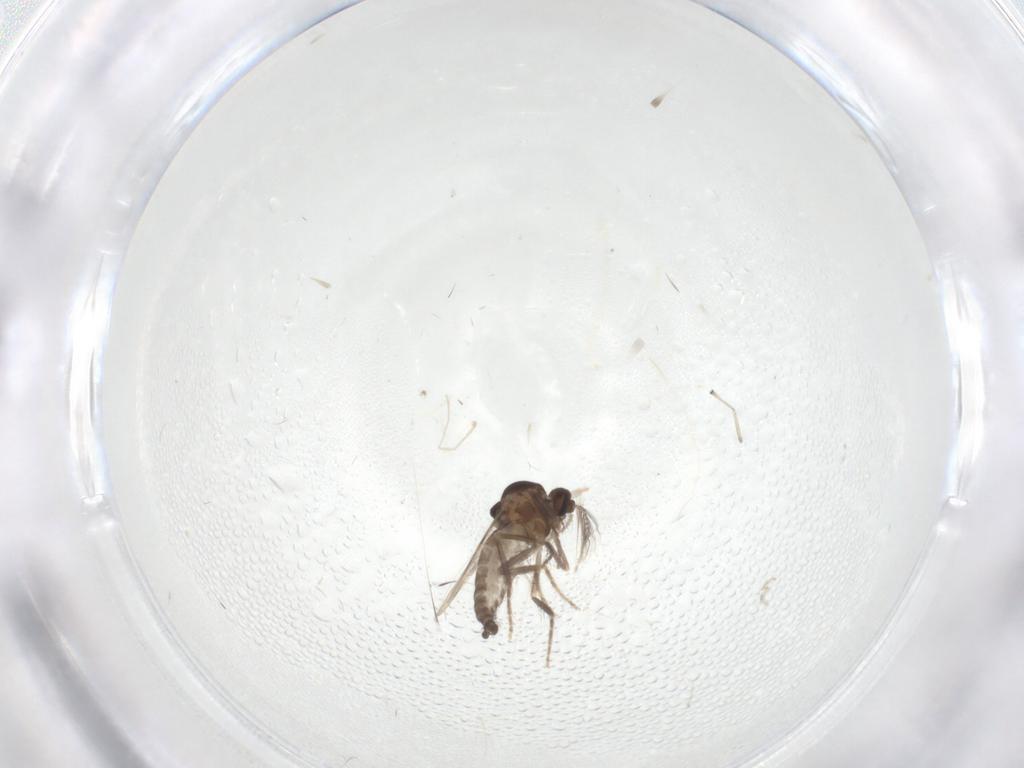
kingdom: Animalia
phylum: Arthropoda
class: Insecta
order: Diptera
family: Ceratopogonidae
